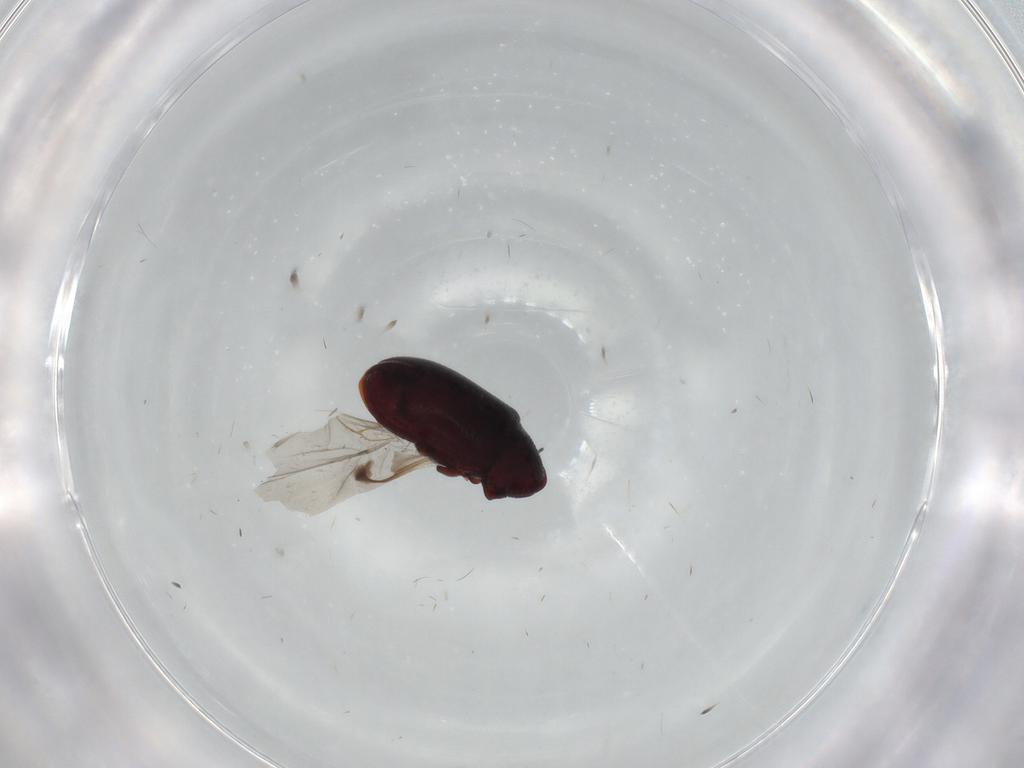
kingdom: Animalia
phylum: Arthropoda
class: Insecta
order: Coleoptera
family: Ptinidae
